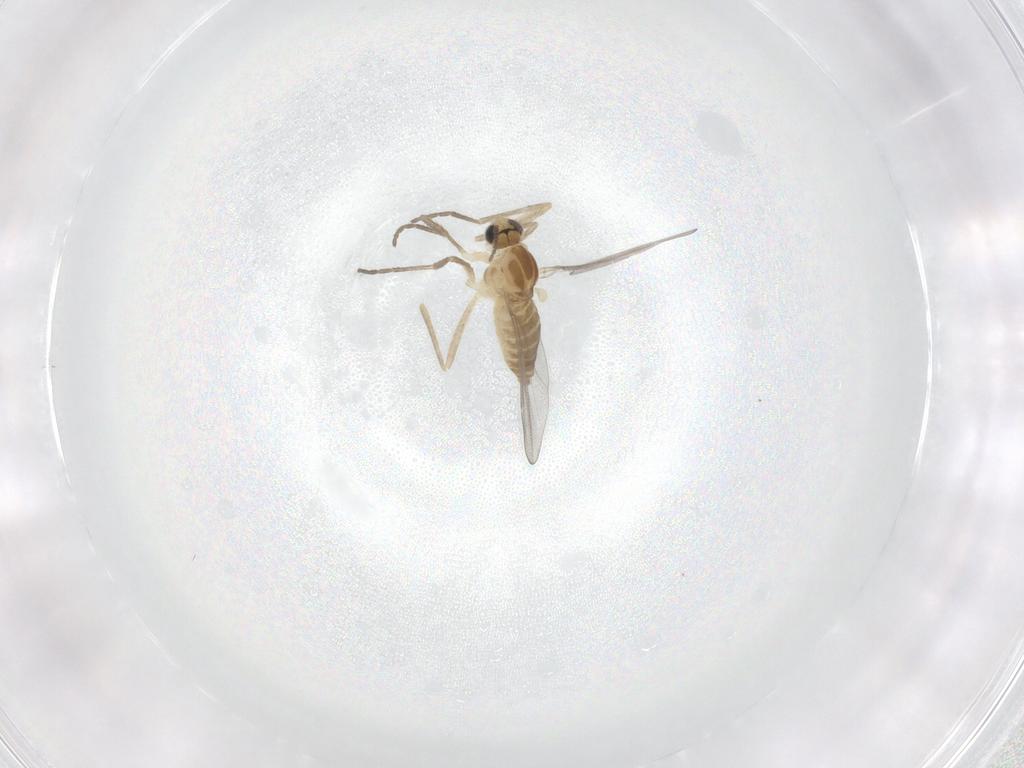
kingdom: Animalia
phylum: Arthropoda
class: Insecta
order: Diptera
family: Cecidomyiidae
